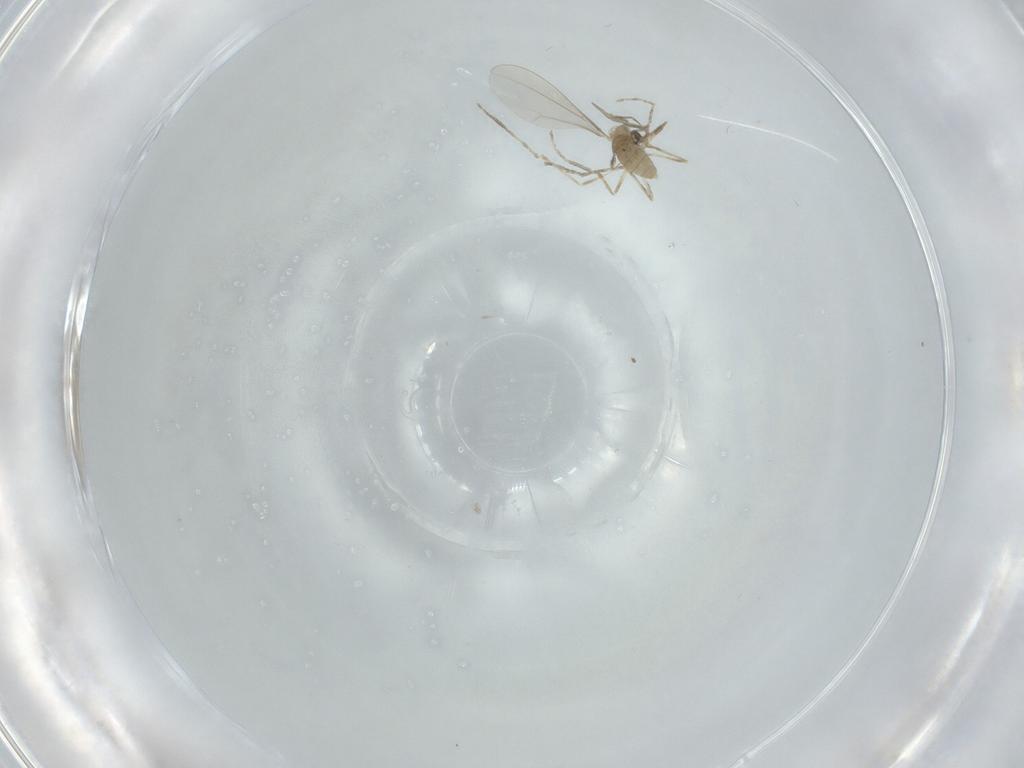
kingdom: Animalia
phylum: Arthropoda
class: Insecta
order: Diptera
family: Cecidomyiidae
